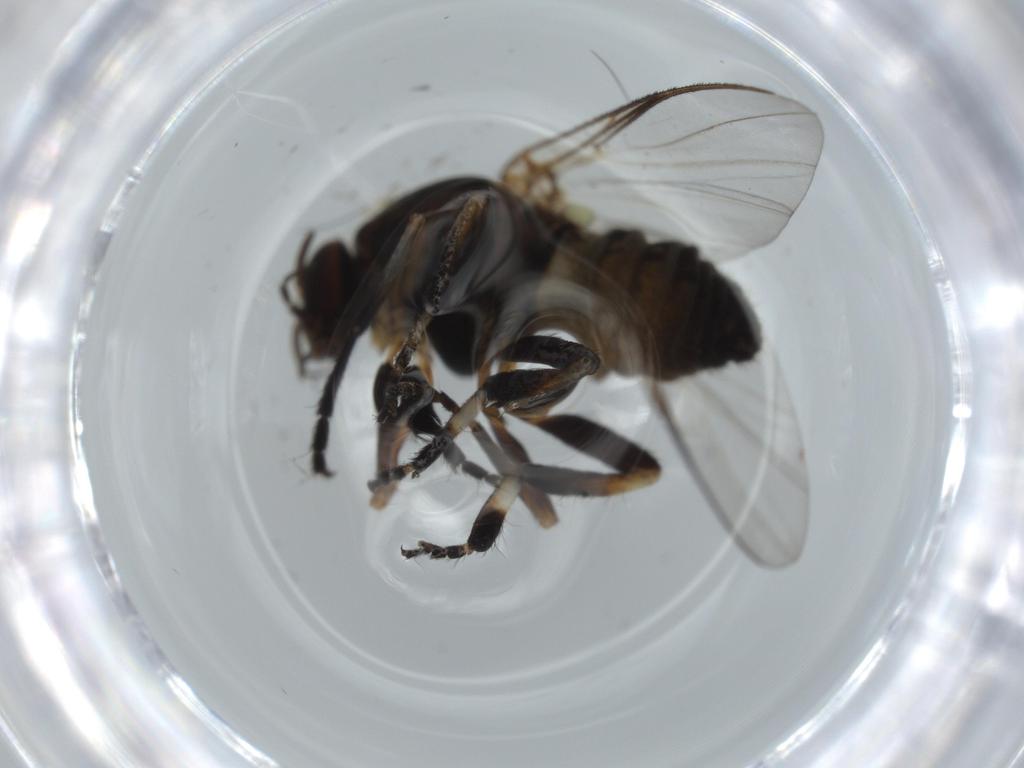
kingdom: Animalia
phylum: Arthropoda
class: Insecta
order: Diptera
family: Cecidomyiidae
